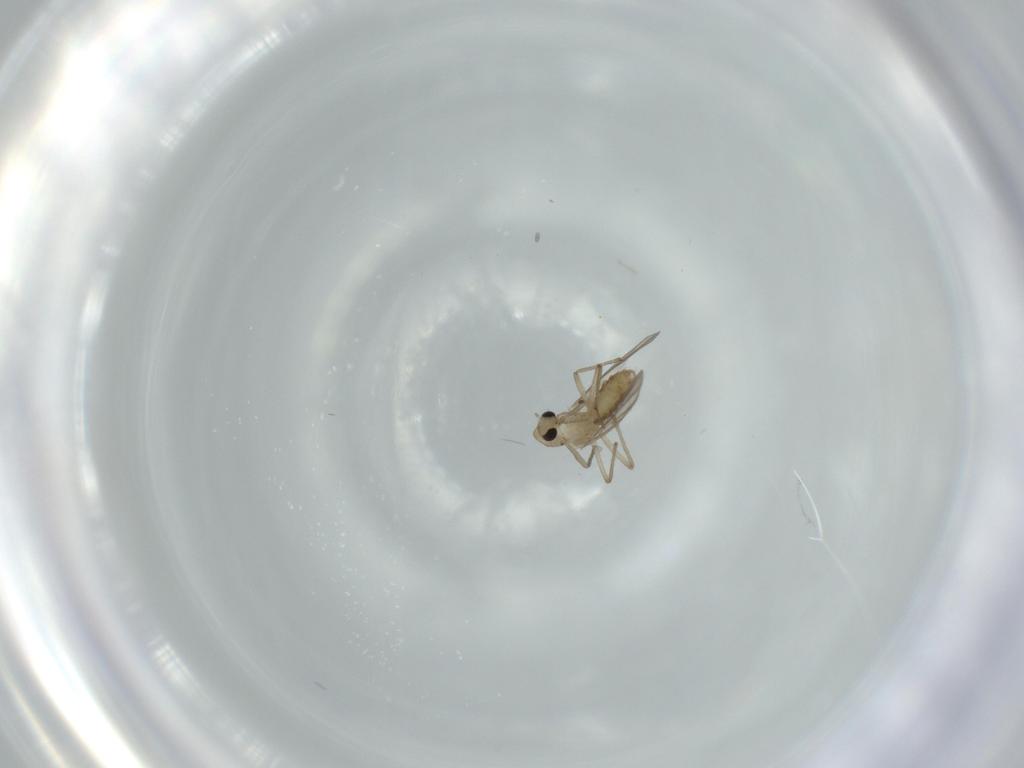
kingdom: Animalia
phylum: Arthropoda
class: Insecta
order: Diptera
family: Chironomidae
